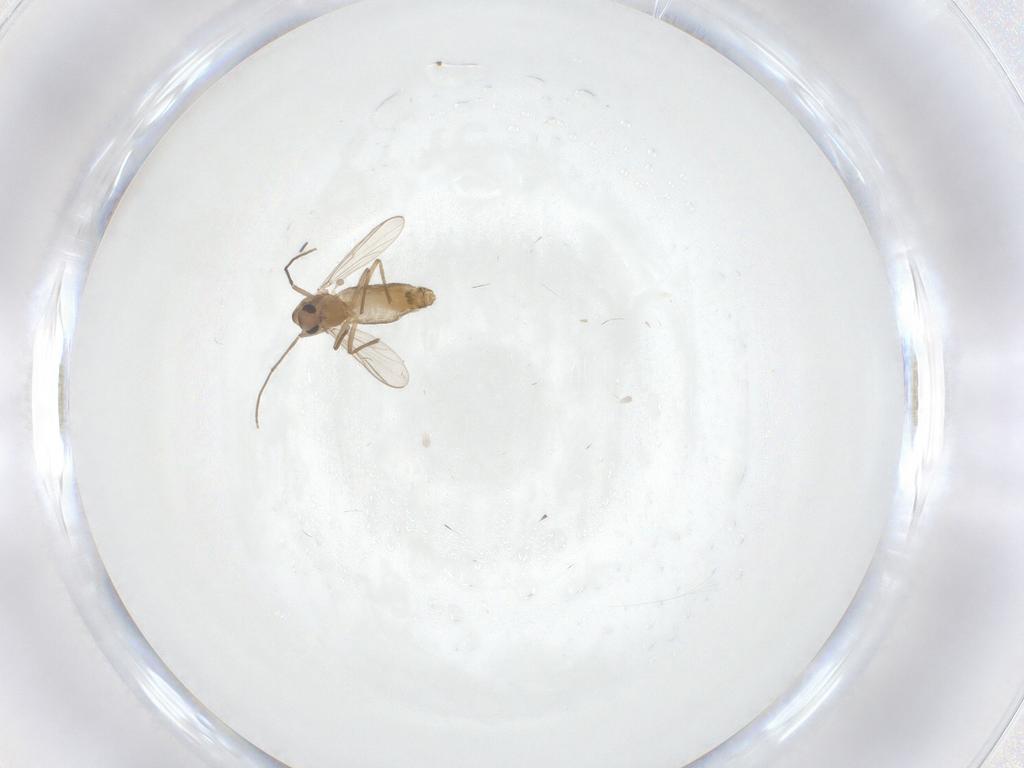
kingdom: Animalia
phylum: Arthropoda
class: Insecta
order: Diptera
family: Chironomidae
